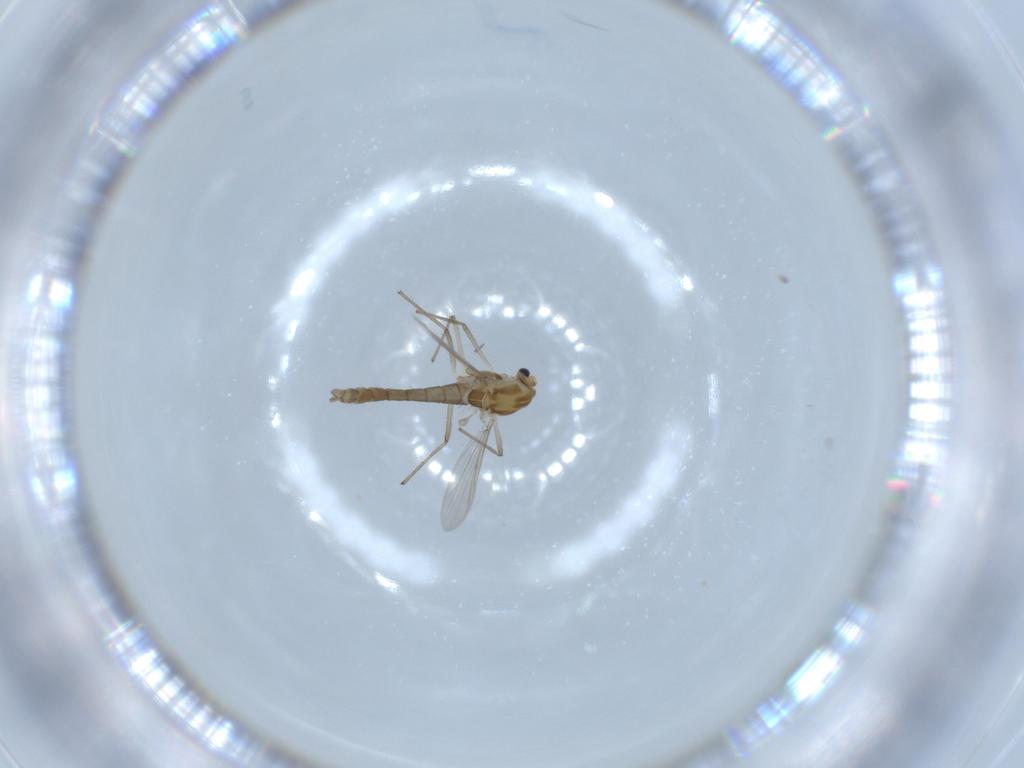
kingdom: Animalia
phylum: Arthropoda
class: Insecta
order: Diptera
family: Chironomidae
